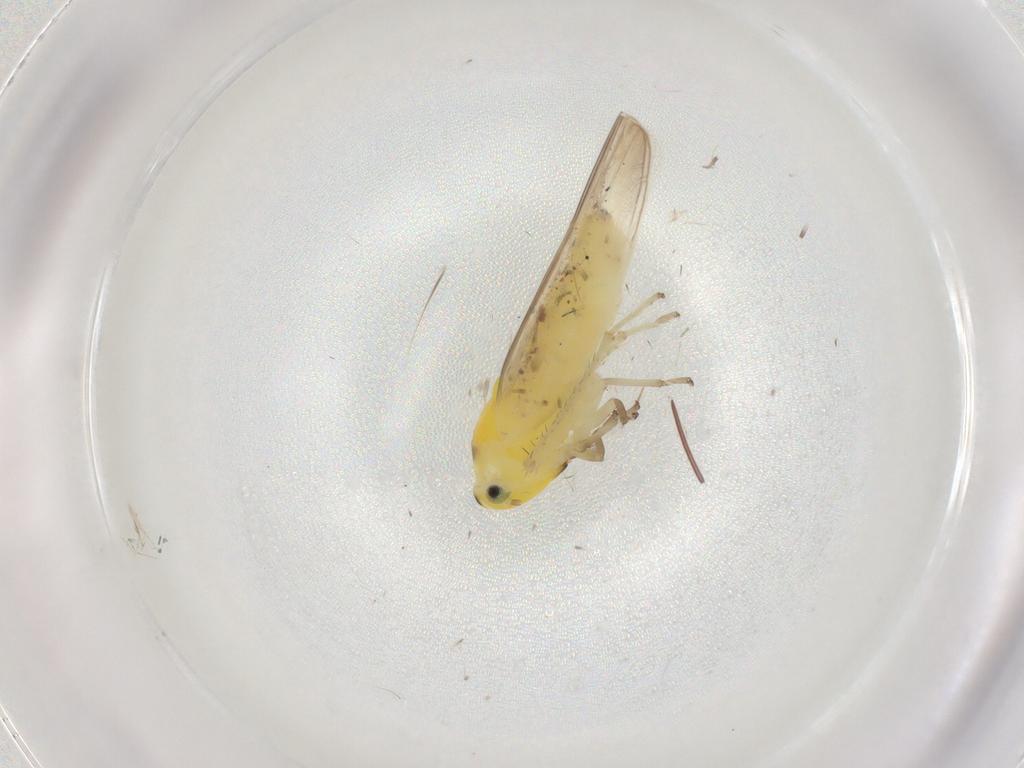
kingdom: Animalia
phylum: Arthropoda
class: Insecta
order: Hemiptera
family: Cicadellidae
